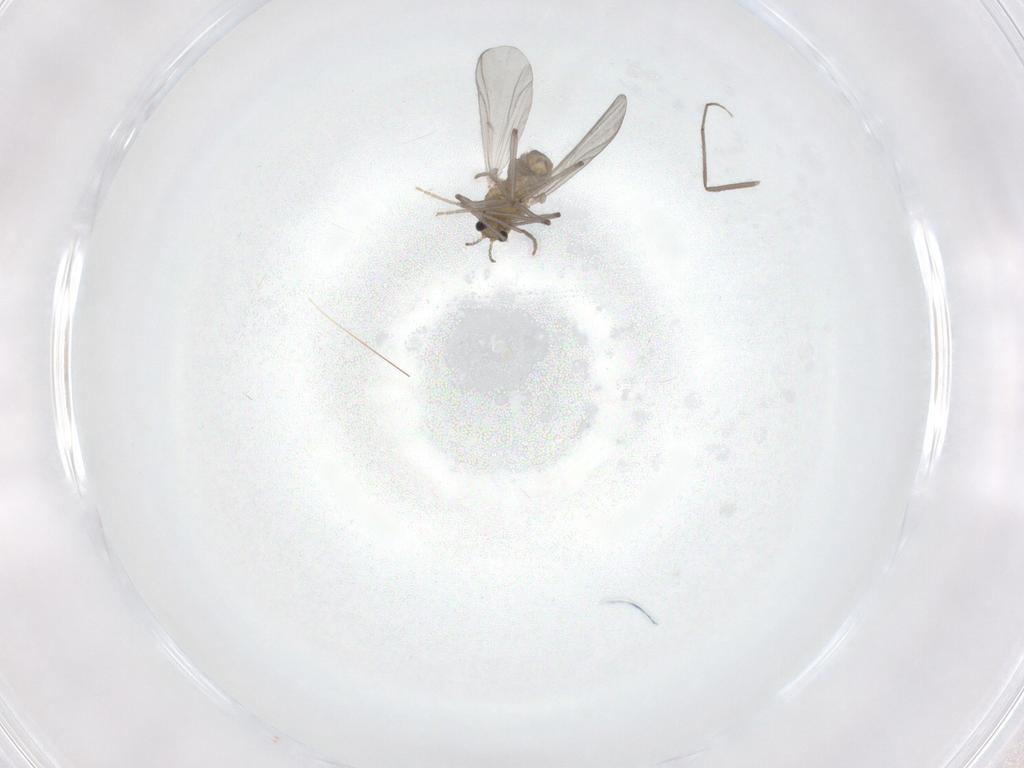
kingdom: Animalia
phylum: Arthropoda
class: Insecta
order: Diptera
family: Chironomidae
